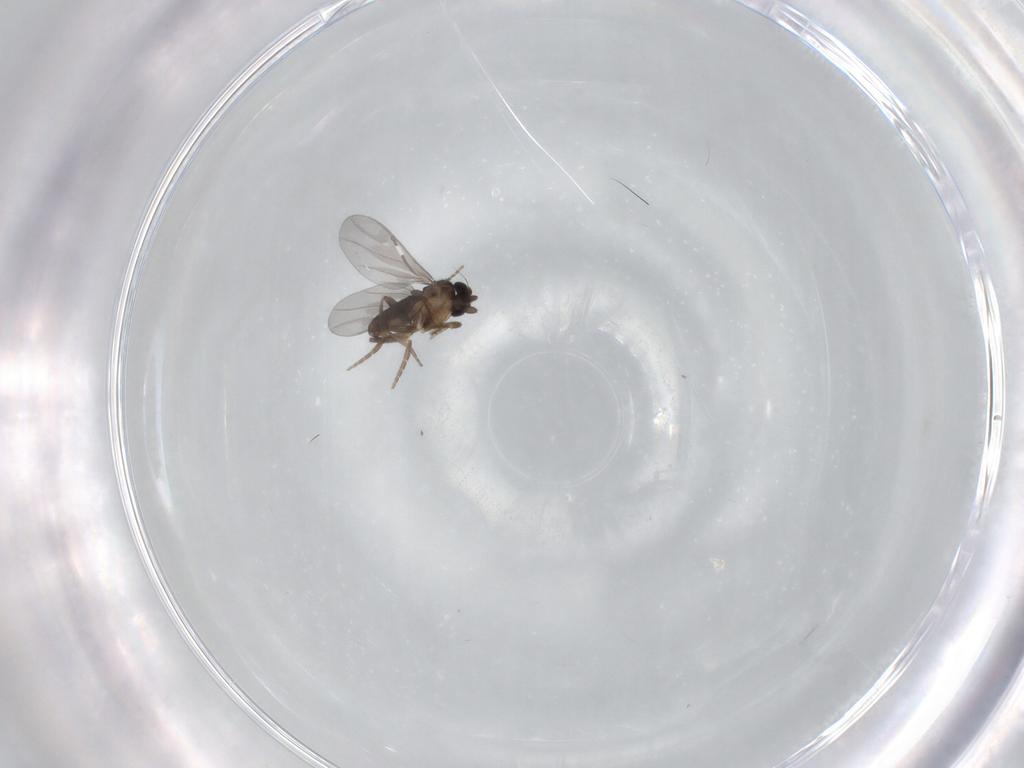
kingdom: Animalia
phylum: Arthropoda
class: Insecta
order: Diptera
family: Chironomidae
